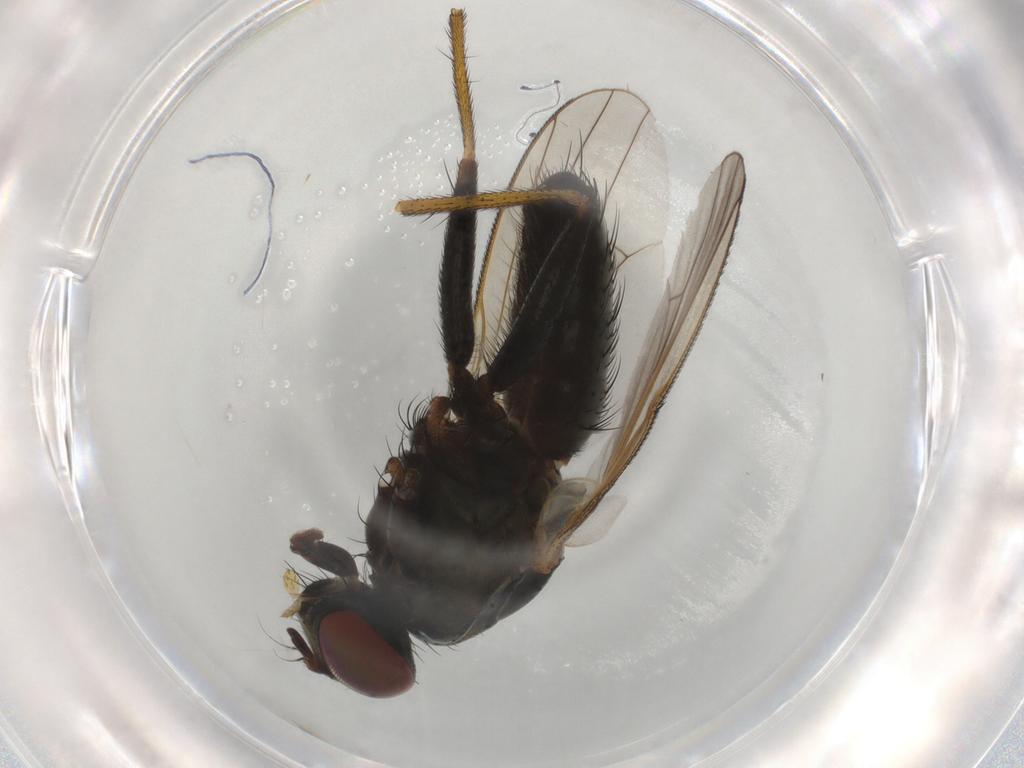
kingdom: Animalia
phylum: Arthropoda
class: Insecta
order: Diptera
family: Muscidae
